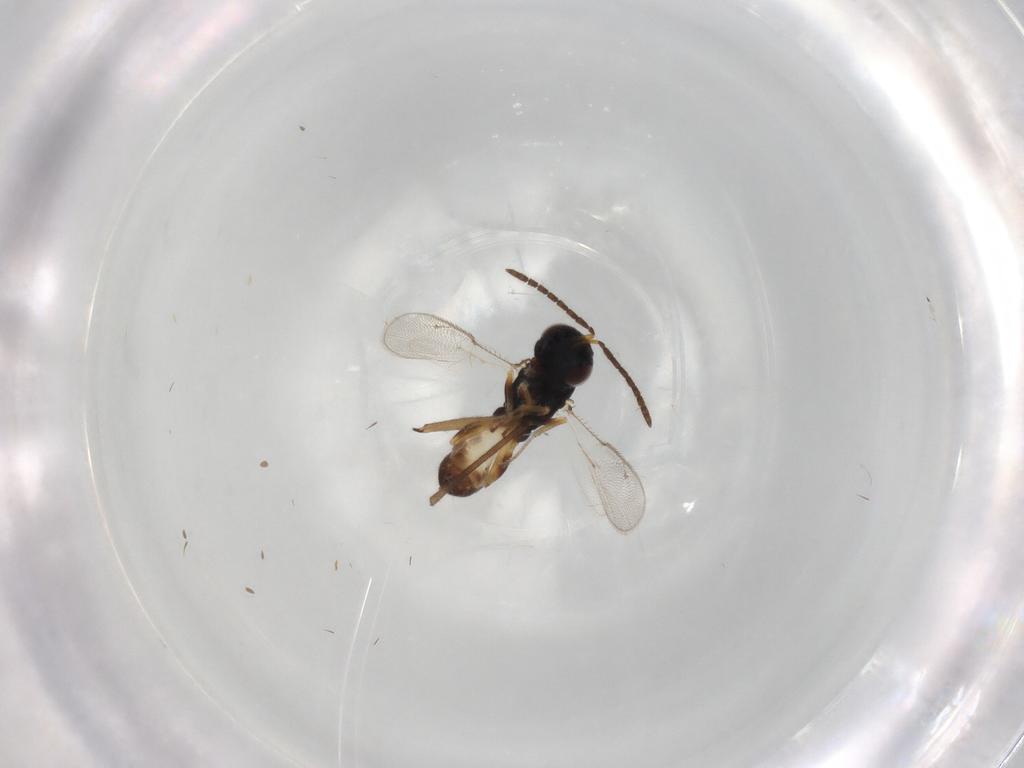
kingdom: Animalia
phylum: Arthropoda
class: Insecta
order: Hymenoptera
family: Pteromalidae
